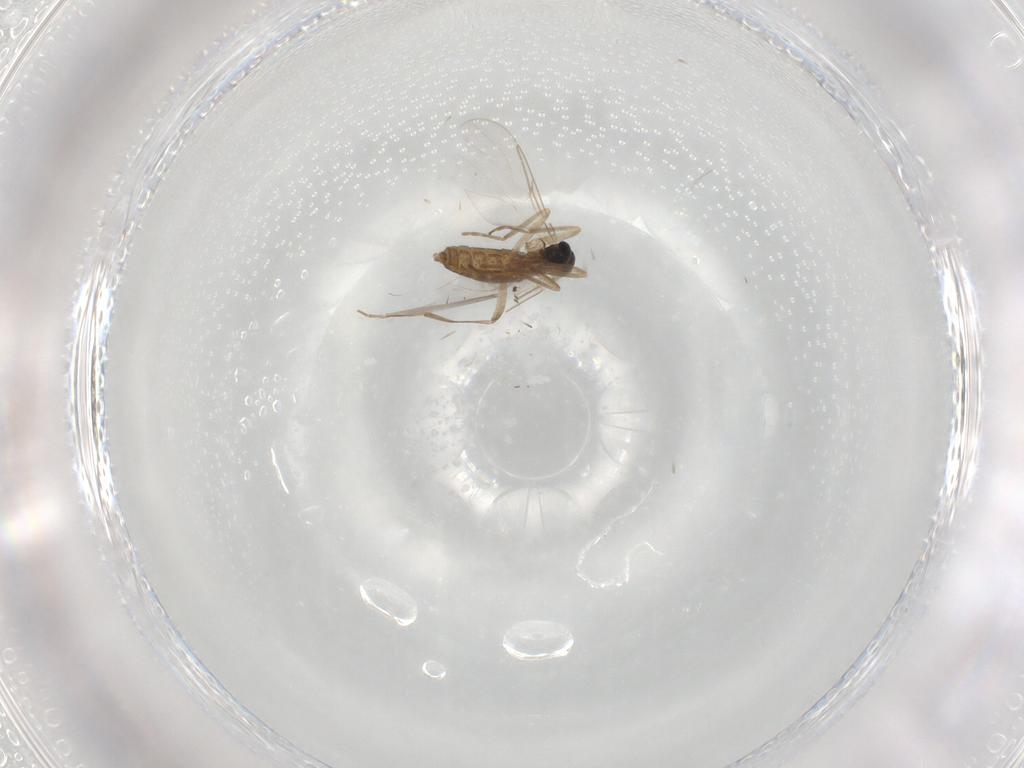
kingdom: Animalia
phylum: Arthropoda
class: Insecta
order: Diptera
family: Cecidomyiidae
